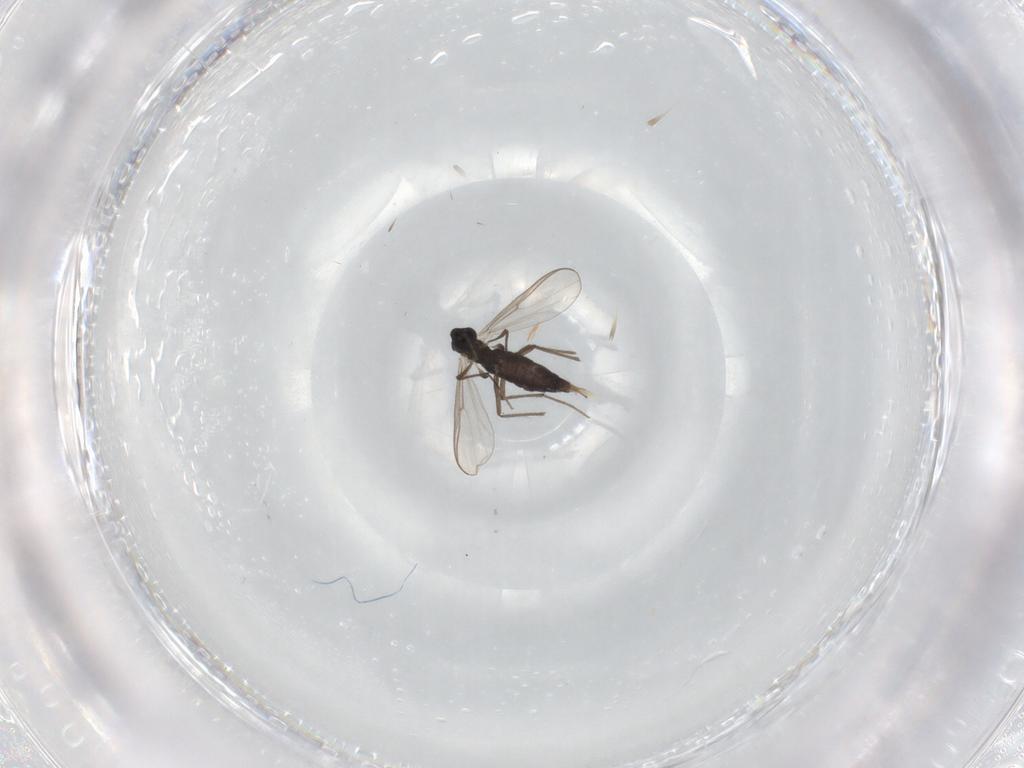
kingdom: Animalia
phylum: Arthropoda
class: Insecta
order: Diptera
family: Chironomidae
